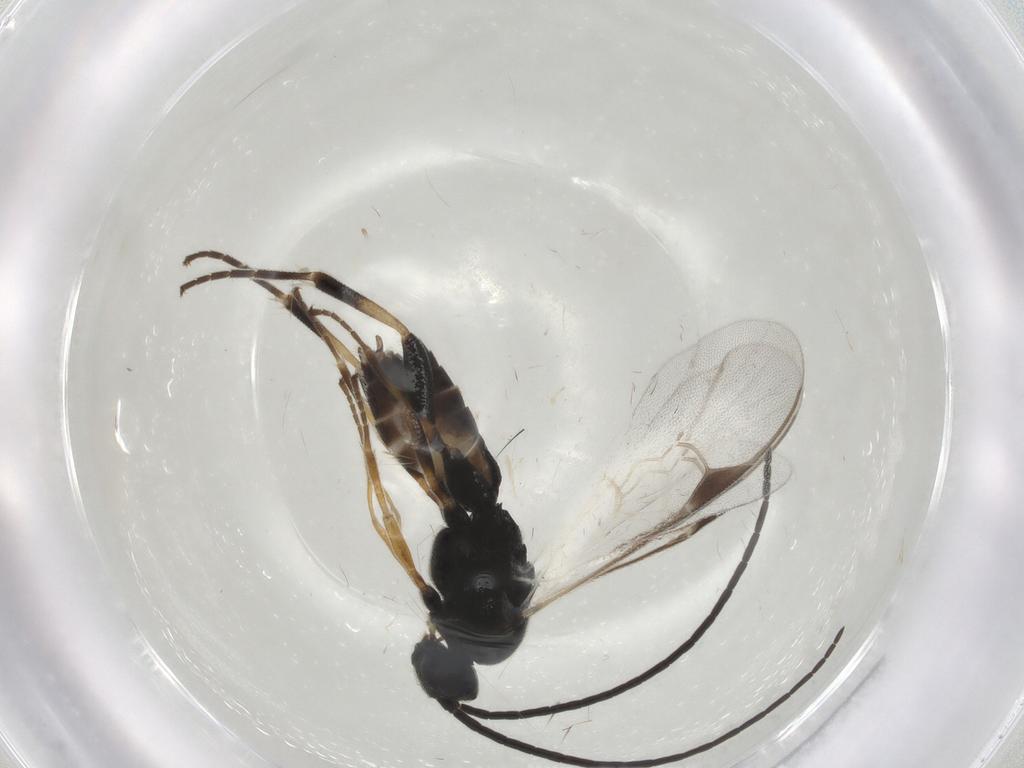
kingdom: Animalia
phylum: Arthropoda
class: Insecta
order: Hymenoptera
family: Braconidae
